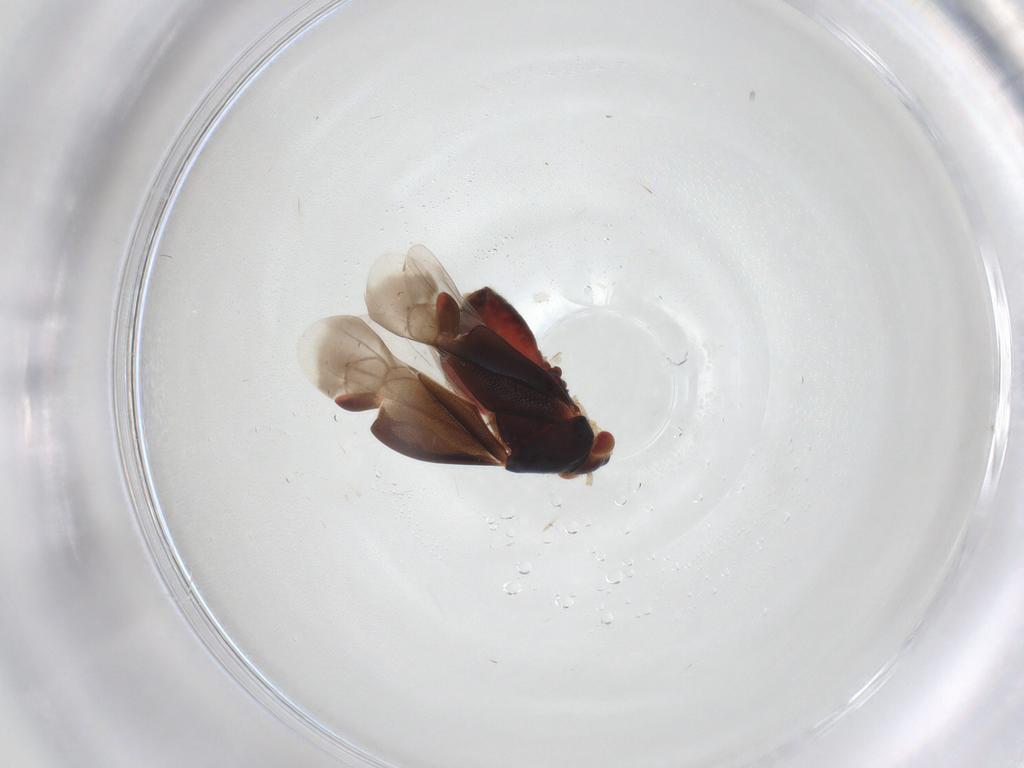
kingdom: Animalia
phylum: Arthropoda
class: Insecta
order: Hemiptera
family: Miridae
